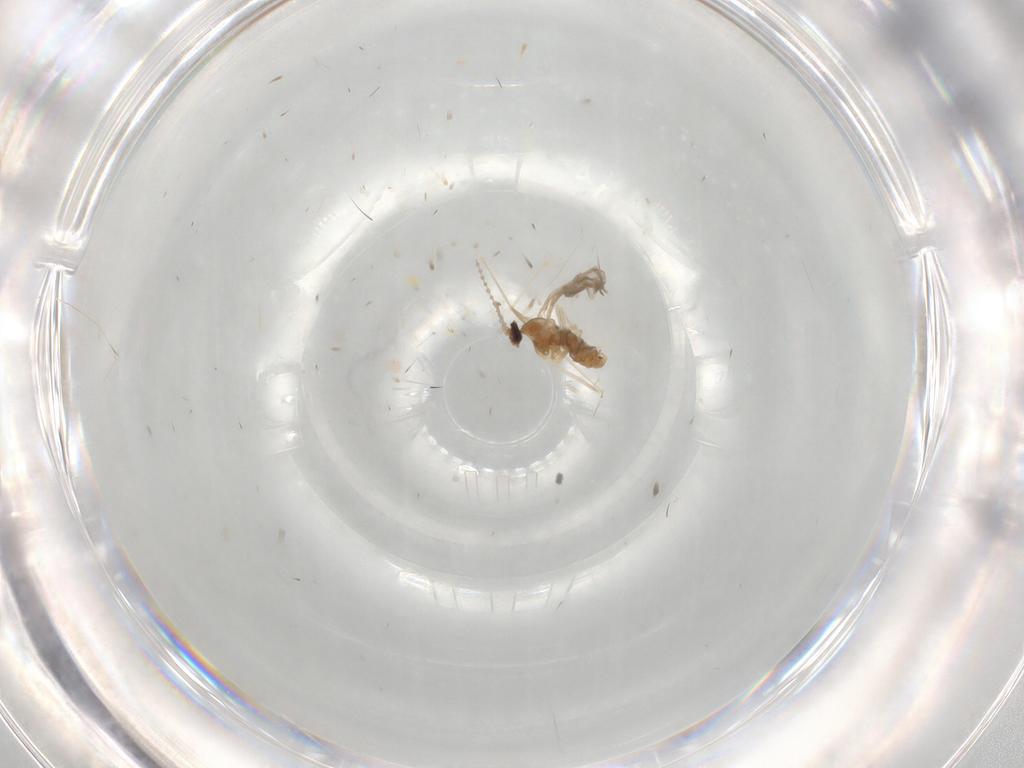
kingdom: Animalia
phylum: Arthropoda
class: Insecta
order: Diptera
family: Cecidomyiidae
